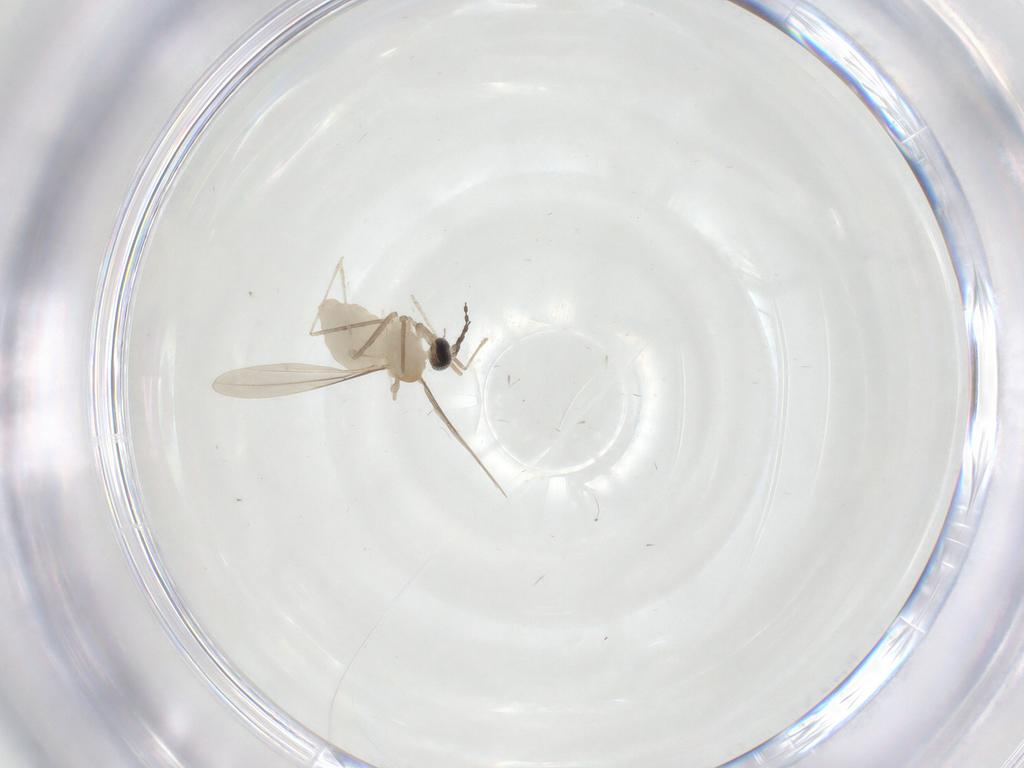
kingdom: Animalia
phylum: Arthropoda
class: Insecta
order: Diptera
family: Cecidomyiidae
